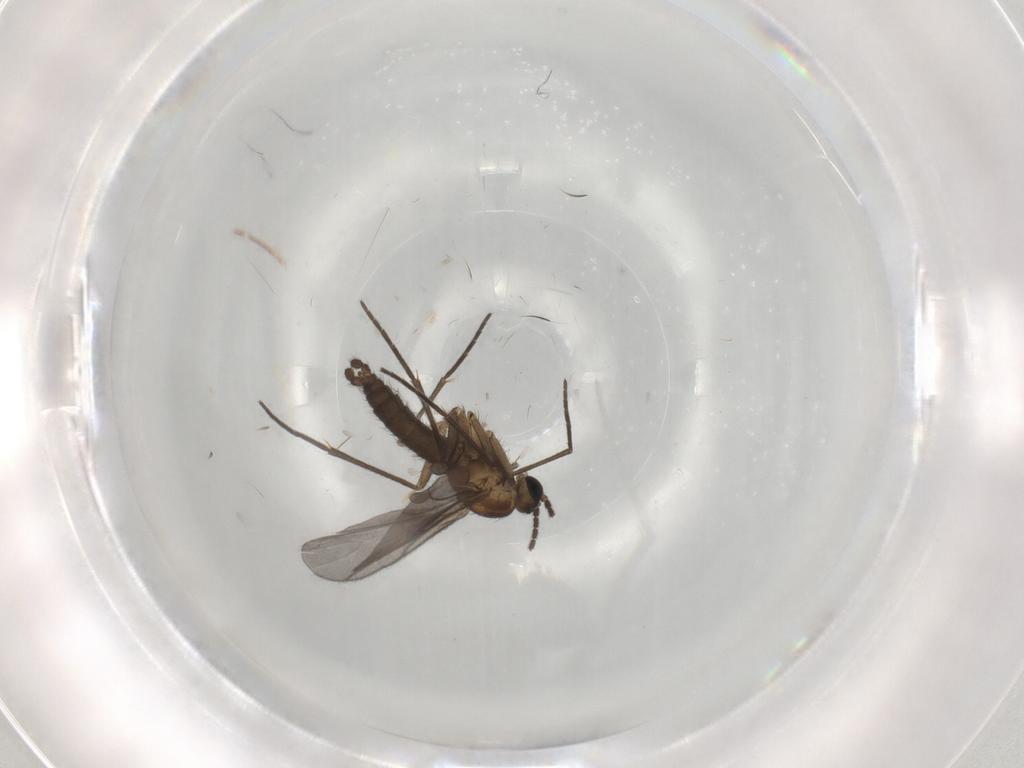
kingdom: Animalia
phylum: Arthropoda
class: Insecta
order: Diptera
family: Sciaridae
